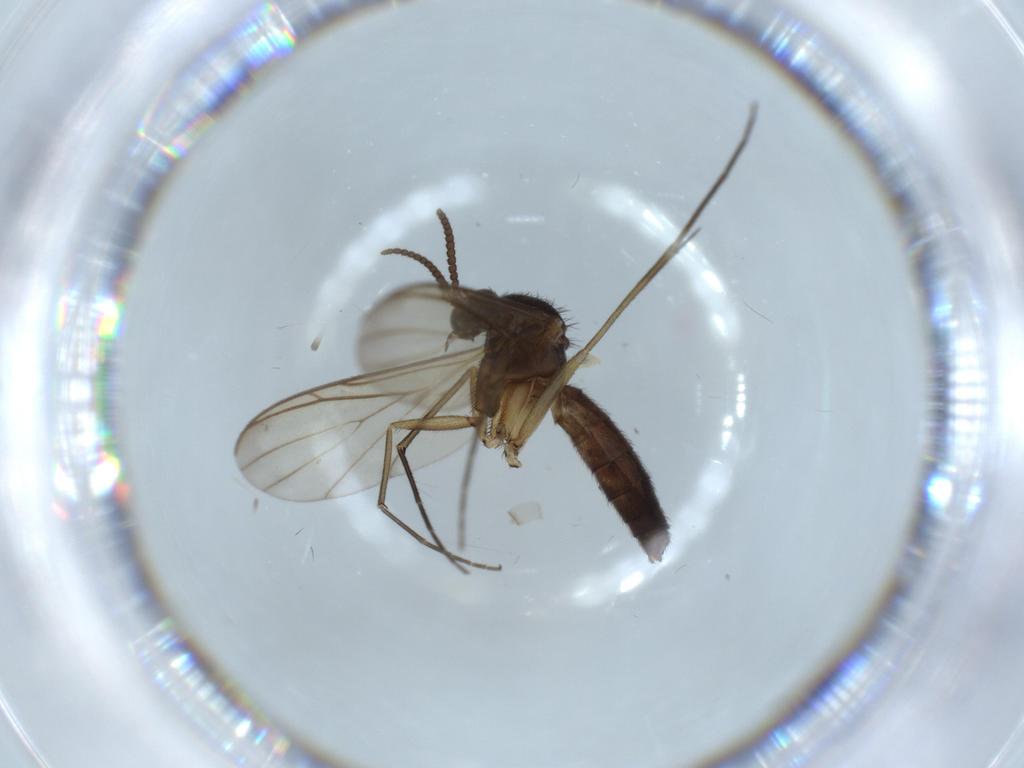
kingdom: Animalia
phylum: Arthropoda
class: Insecta
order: Diptera
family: Sciaridae
